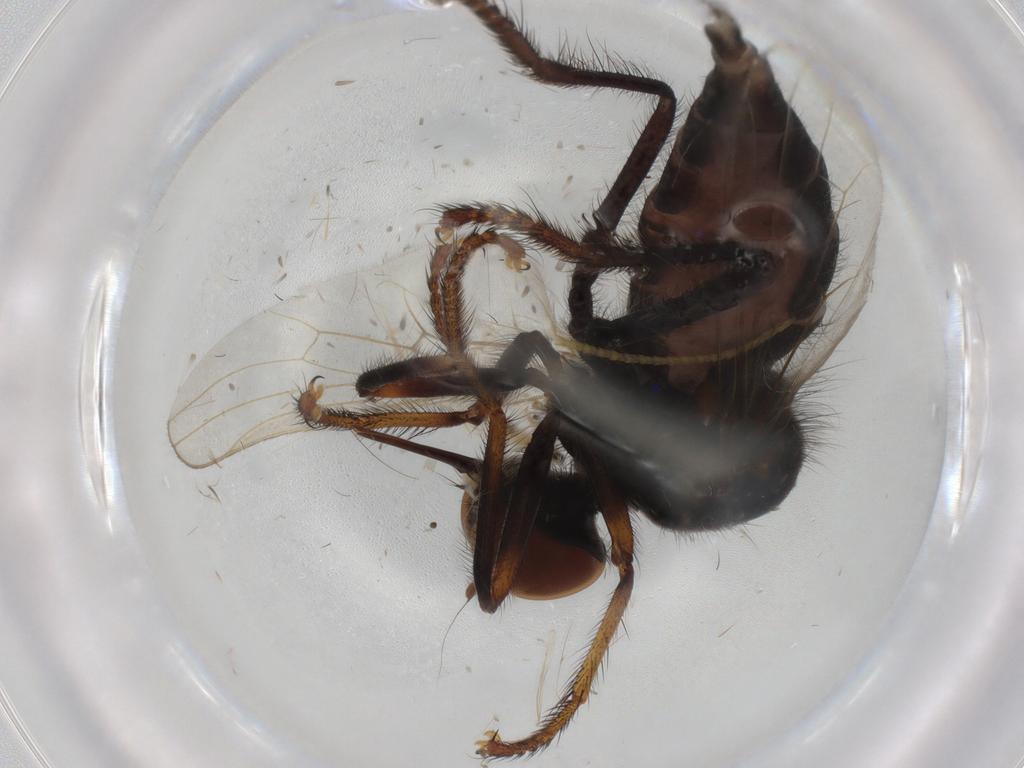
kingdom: Animalia
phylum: Arthropoda
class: Insecta
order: Diptera
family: Hybotidae
